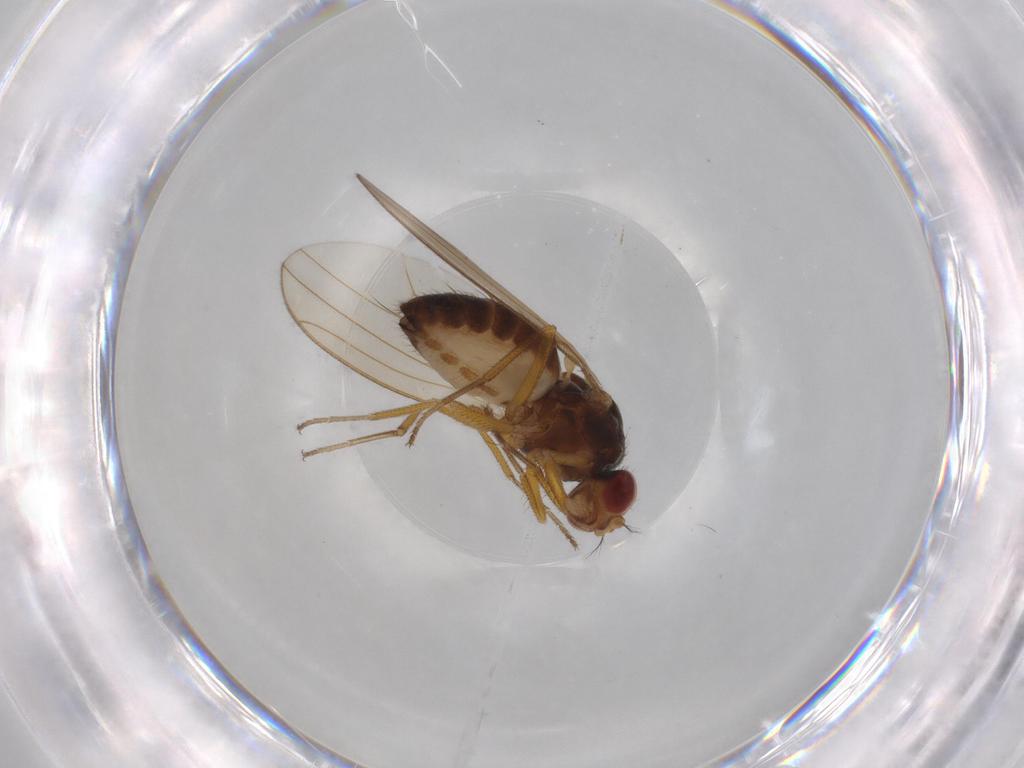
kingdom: Animalia
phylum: Arthropoda
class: Insecta
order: Diptera
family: Drosophilidae
